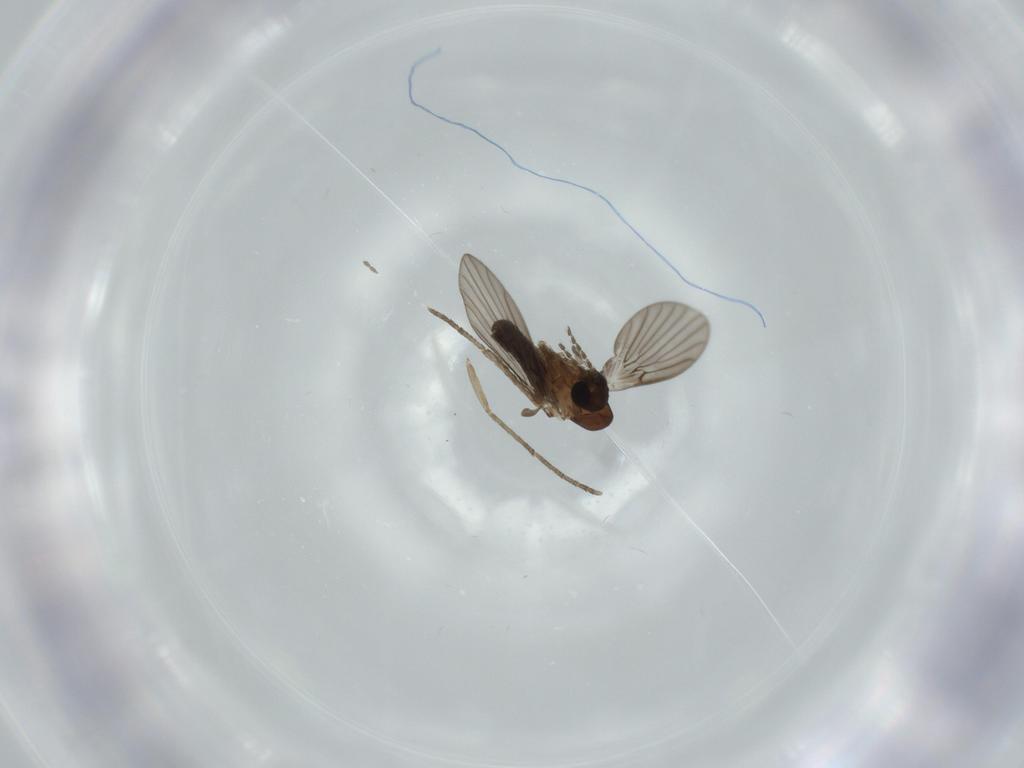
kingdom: Animalia
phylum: Arthropoda
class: Insecta
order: Diptera
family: Psychodidae
